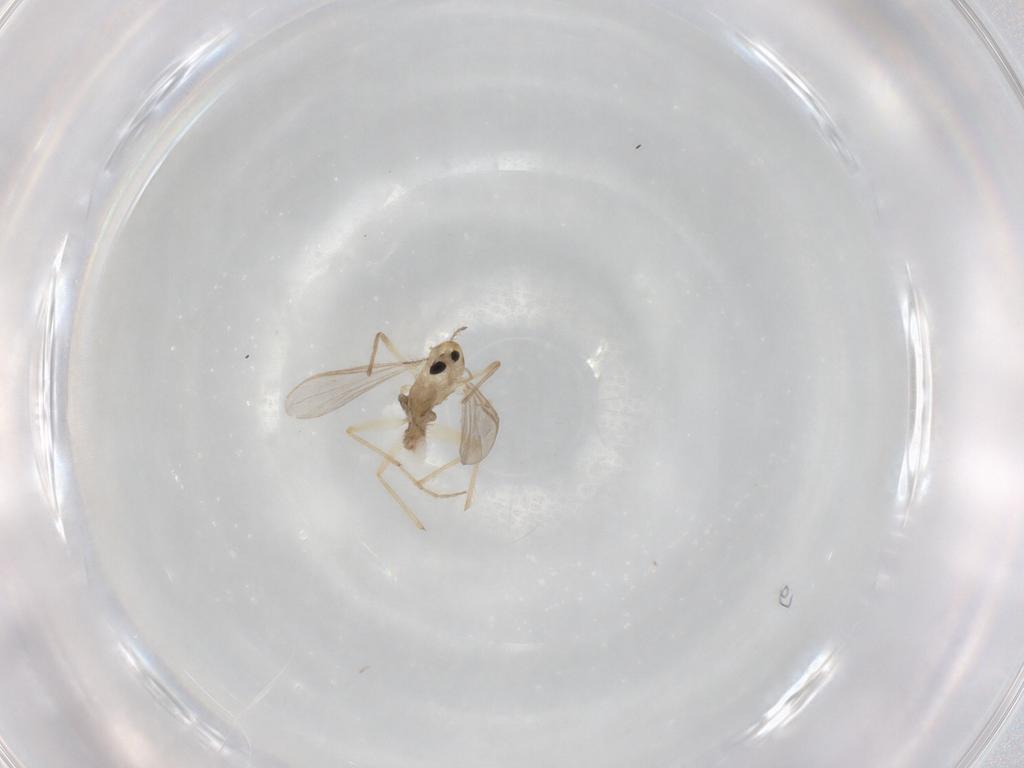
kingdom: Animalia
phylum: Arthropoda
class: Insecta
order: Diptera
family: Chironomidae
